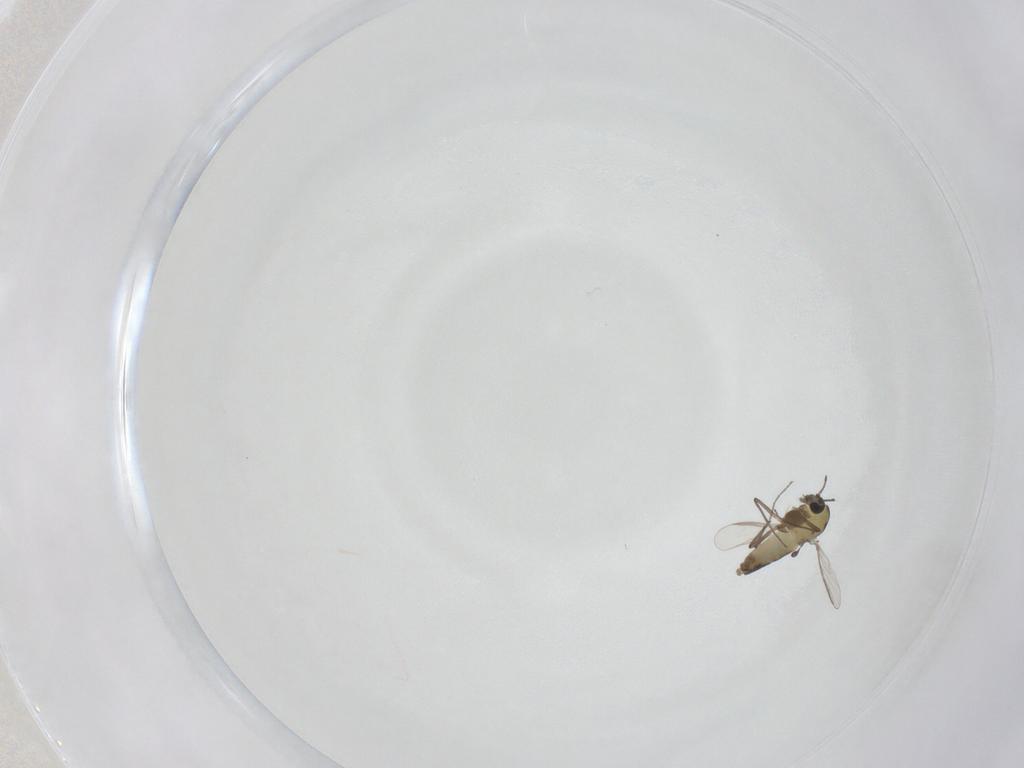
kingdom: Animalia
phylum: Arthropoda
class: Insecta
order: Diptera
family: Chironomidae
